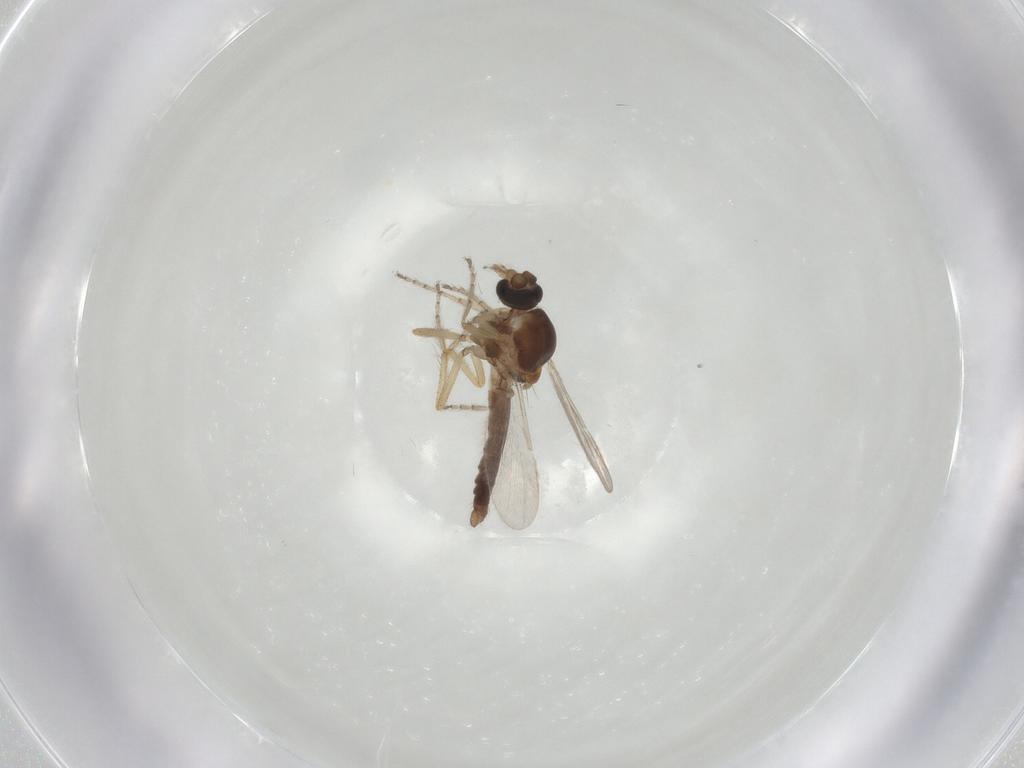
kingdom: Animalia
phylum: Arthropoda
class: Insecta
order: Diptera
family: Ceratopogonidae
